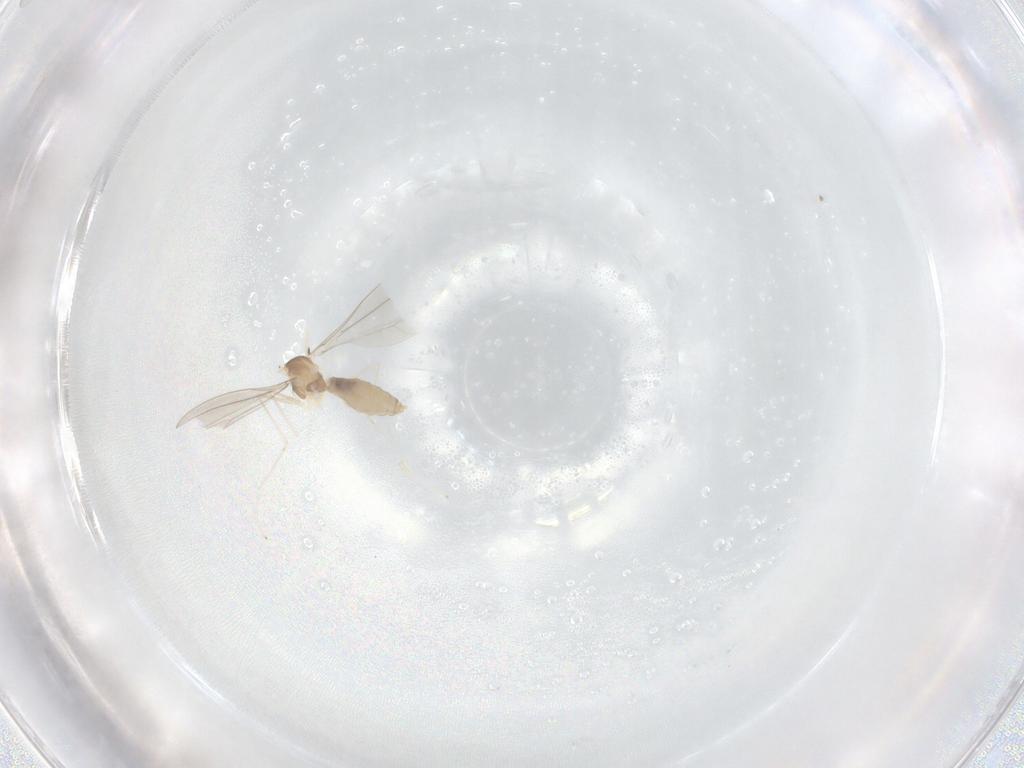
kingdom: Animalia
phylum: Arthropoda
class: Insecta
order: Diptera
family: Cecidomyiidae
